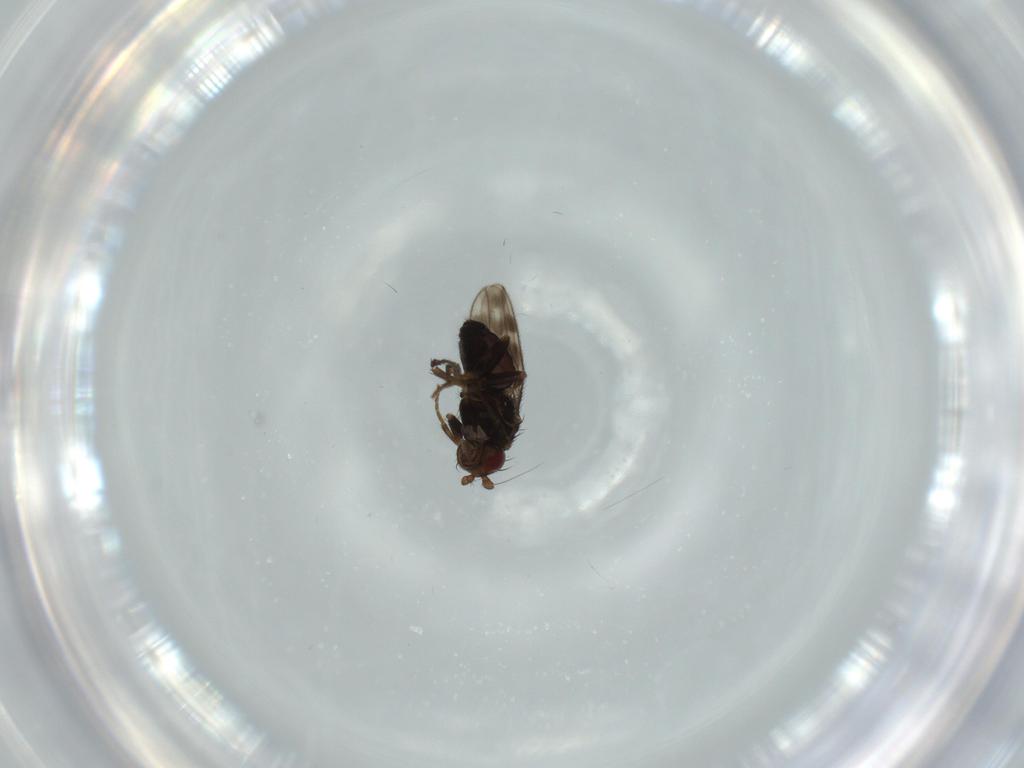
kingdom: Animalia
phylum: Arthropoda
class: Insecta
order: Diptera
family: Sphaeroceridae
